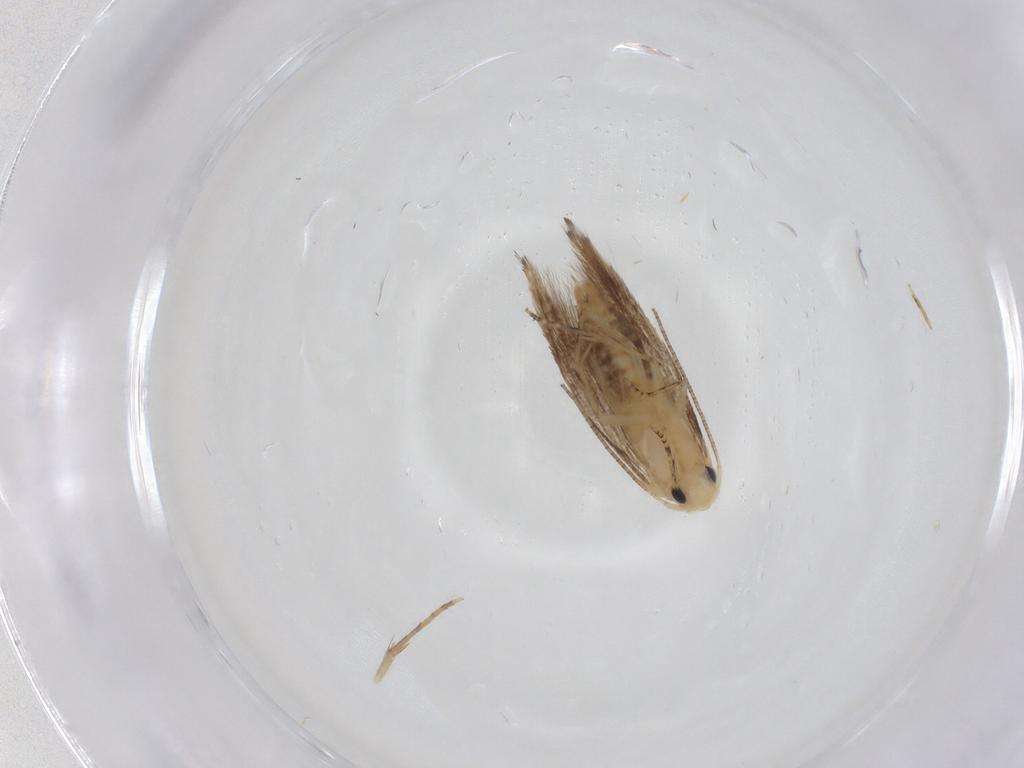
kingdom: Animalia
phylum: Arthropoda
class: Insecta
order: Lepidoptera
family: Tineidae
